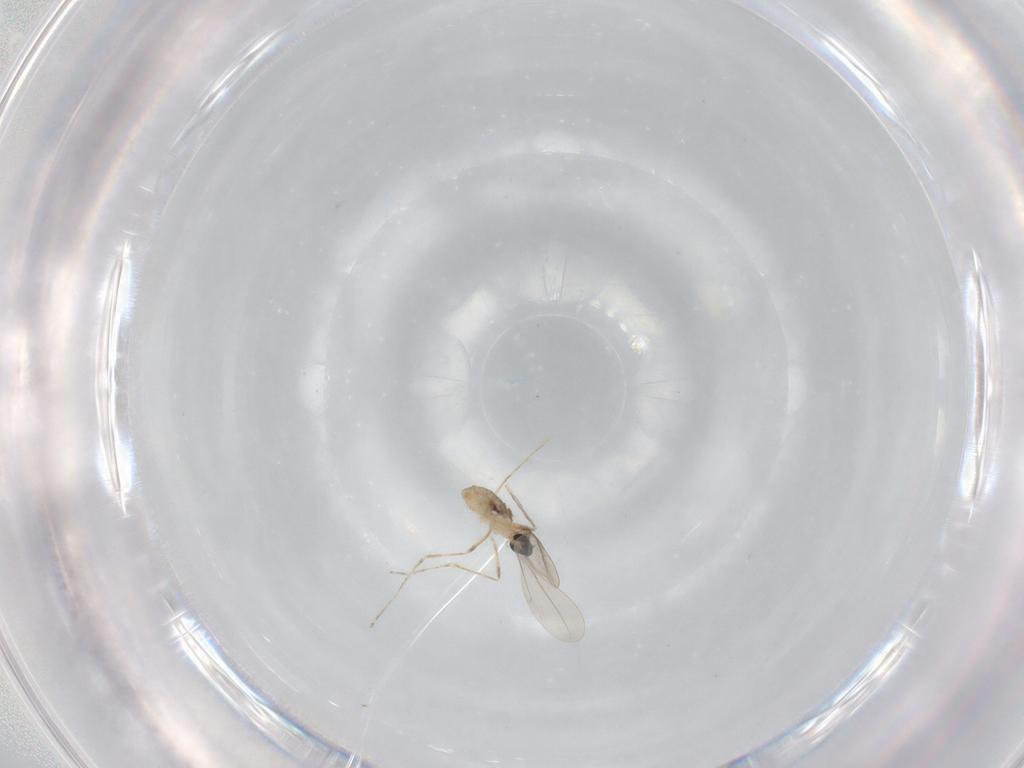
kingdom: Animalia
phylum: Arthropoda
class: Insecta
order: Diptera
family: Cecidomyiidae
